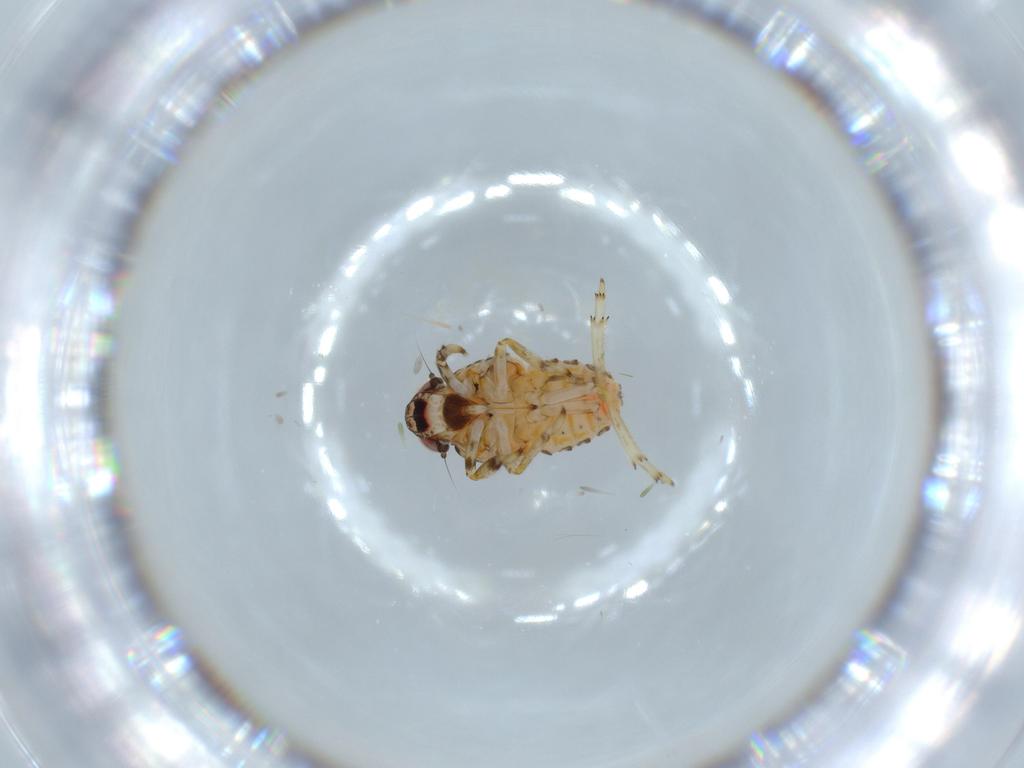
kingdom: Animalia
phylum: Arthropoda
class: Insecta
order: Hemiptera
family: Issidae
